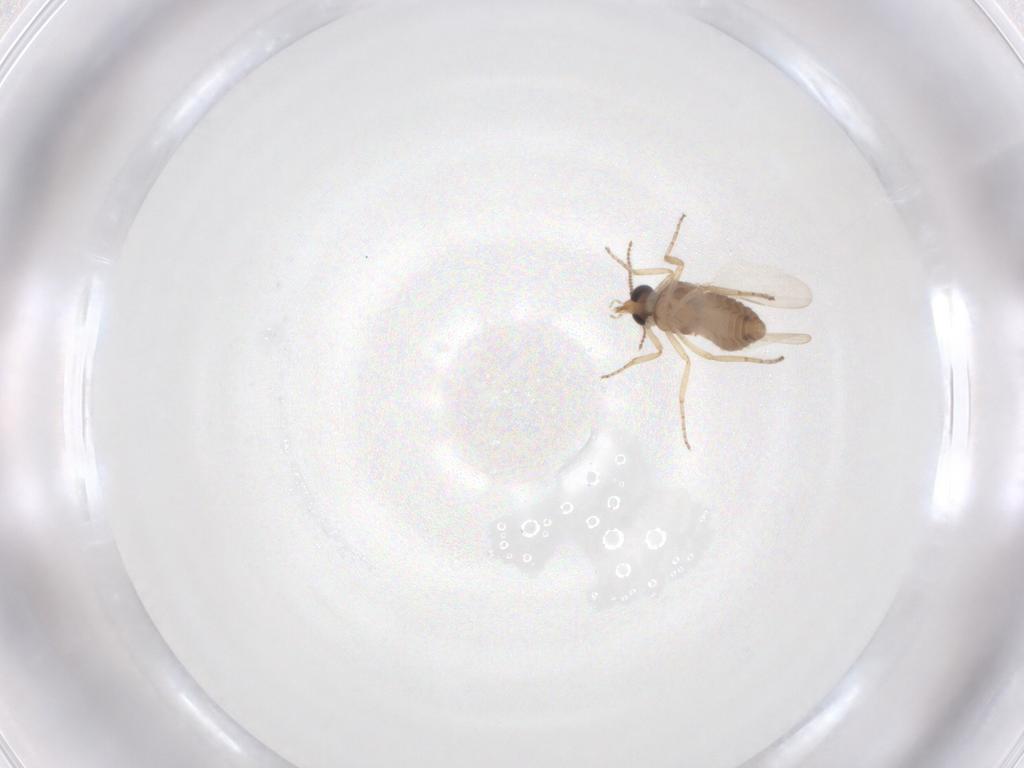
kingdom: Animalia
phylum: Arthropoda
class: Insecta
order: Diptera
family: Ceratopogonidae
